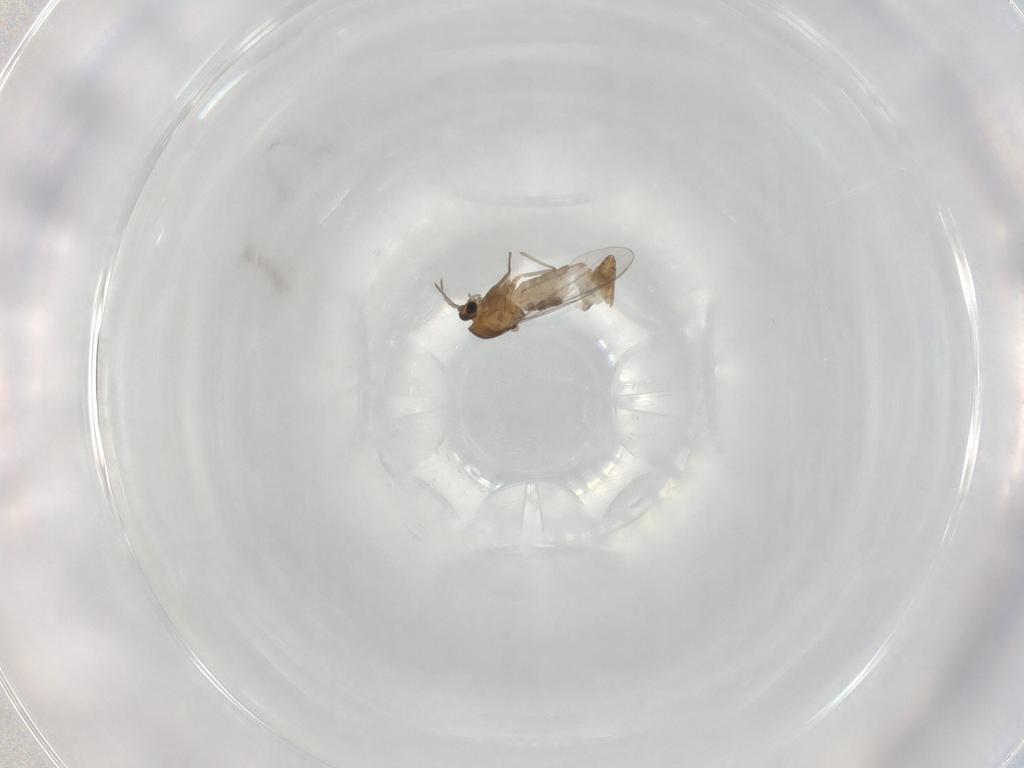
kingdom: Animalia
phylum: Arthropoda
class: Insecta
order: Diptera
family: Chironomidae
